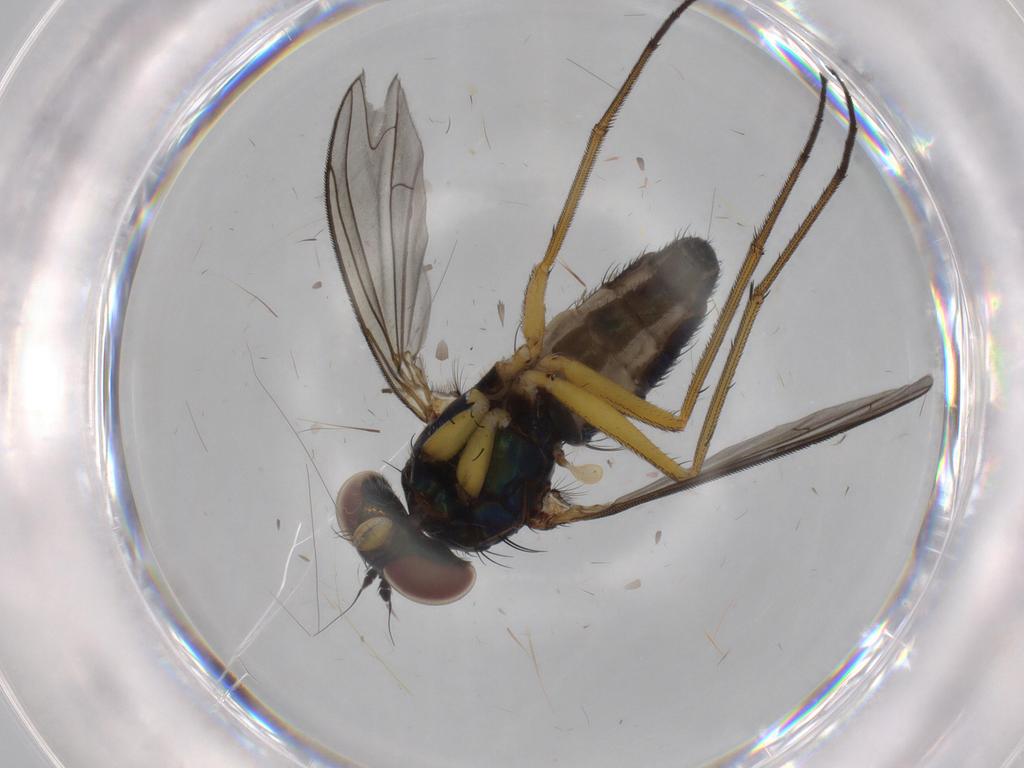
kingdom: Animalia
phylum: Arthropoda
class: Insecta
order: Diptera
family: Dolichopodidae
